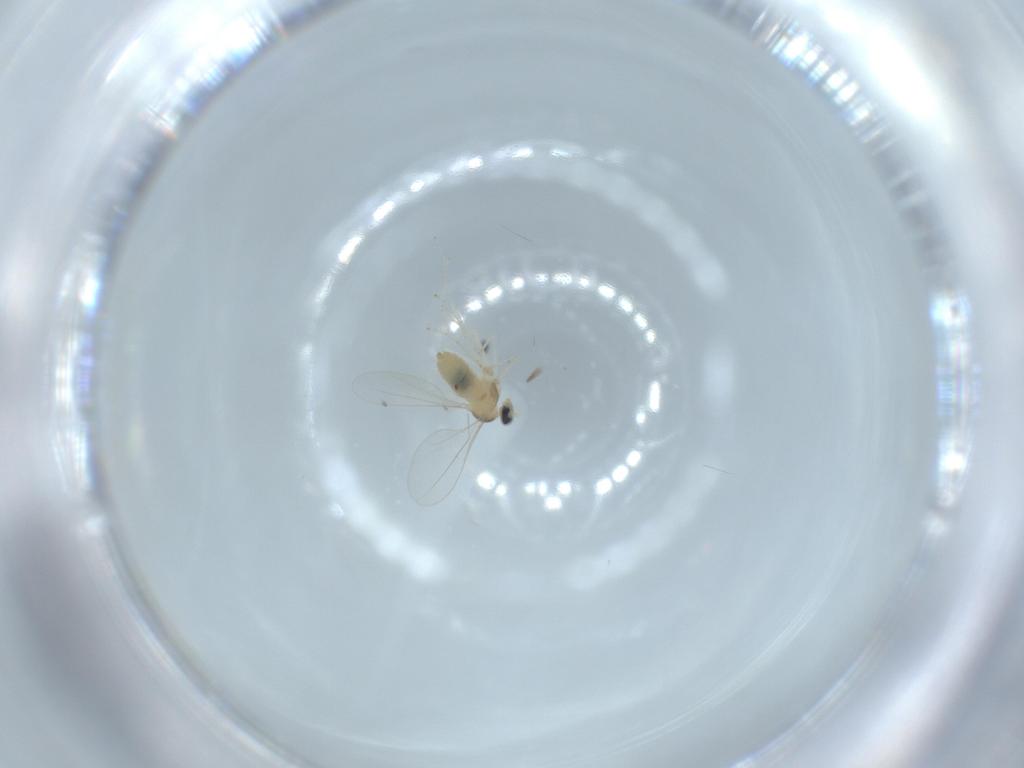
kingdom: Animalia
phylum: Arthropoda
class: Insecta
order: Diptera
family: Cecidomyiidae
